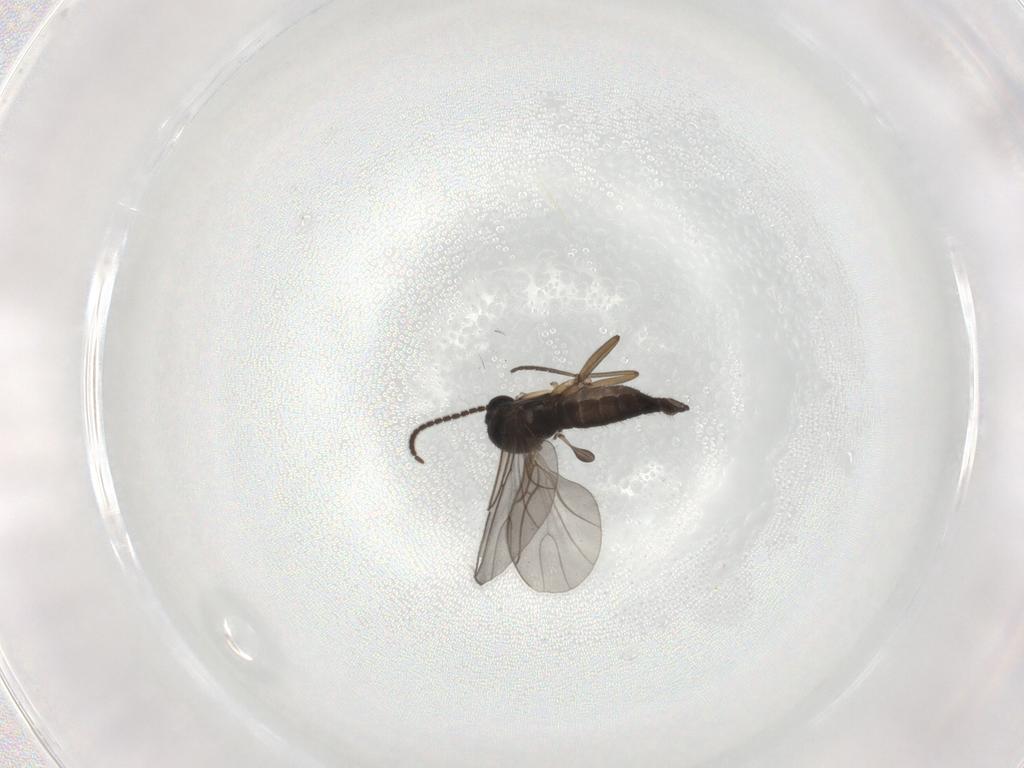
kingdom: Animalia
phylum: Arthropoda
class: Insecta
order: Diptera
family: Sciaridae
